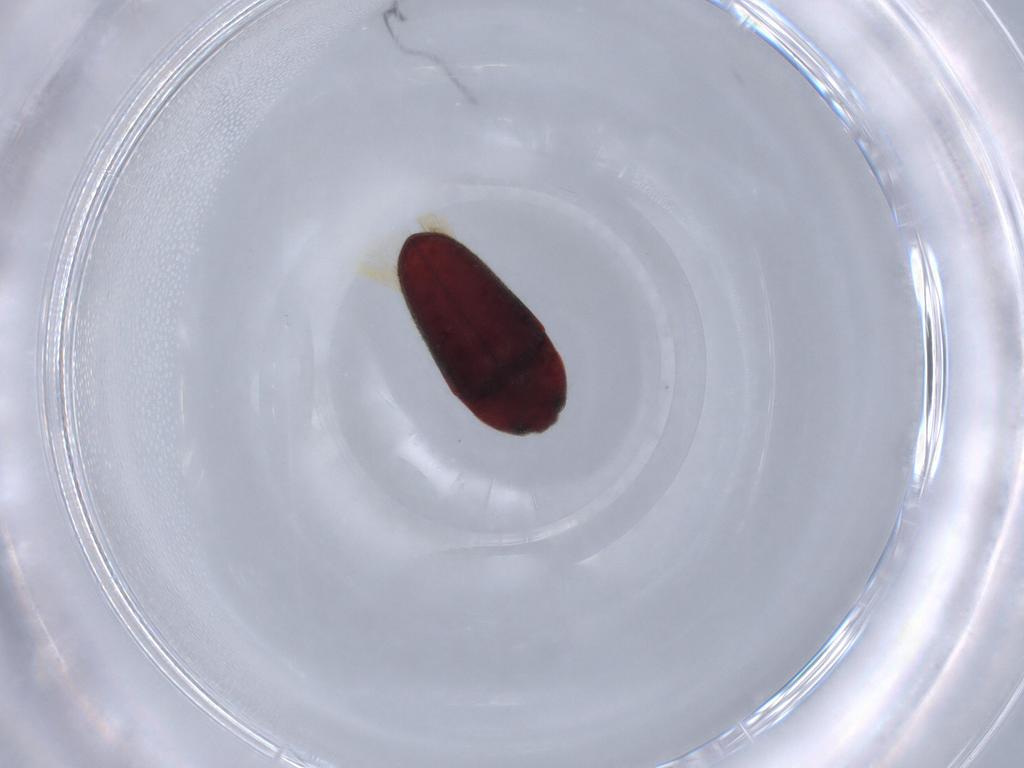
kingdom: Animalia
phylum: Arthropoda
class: Insecta
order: Coleoptera
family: Throscidae
